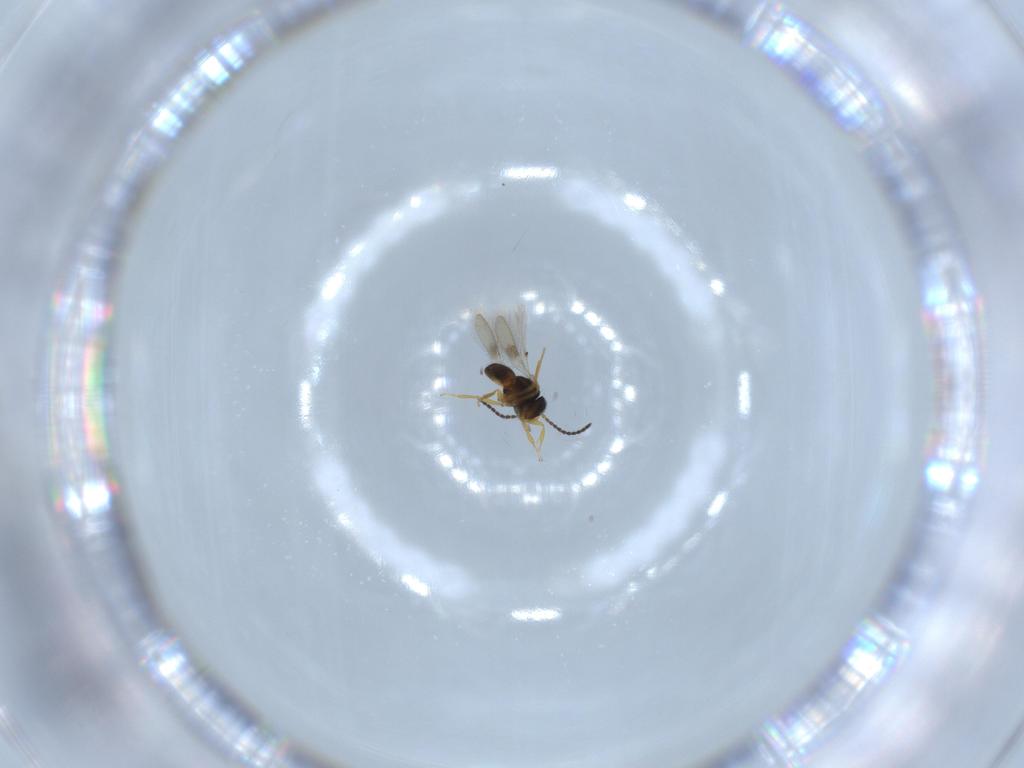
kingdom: Animalia
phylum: Arthropoda
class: Insecta
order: Hymenoptera
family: Scelionidae
